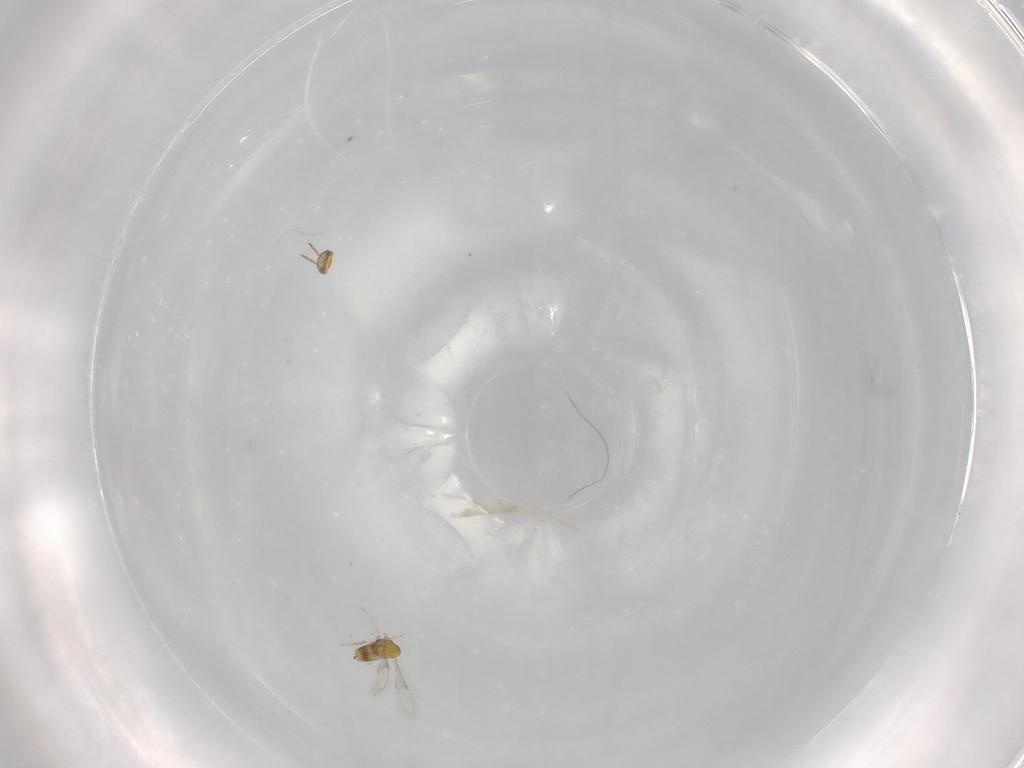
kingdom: Animalia
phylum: Arthropoda
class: Insecta
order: Hymenoptera
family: Aphelinidae
